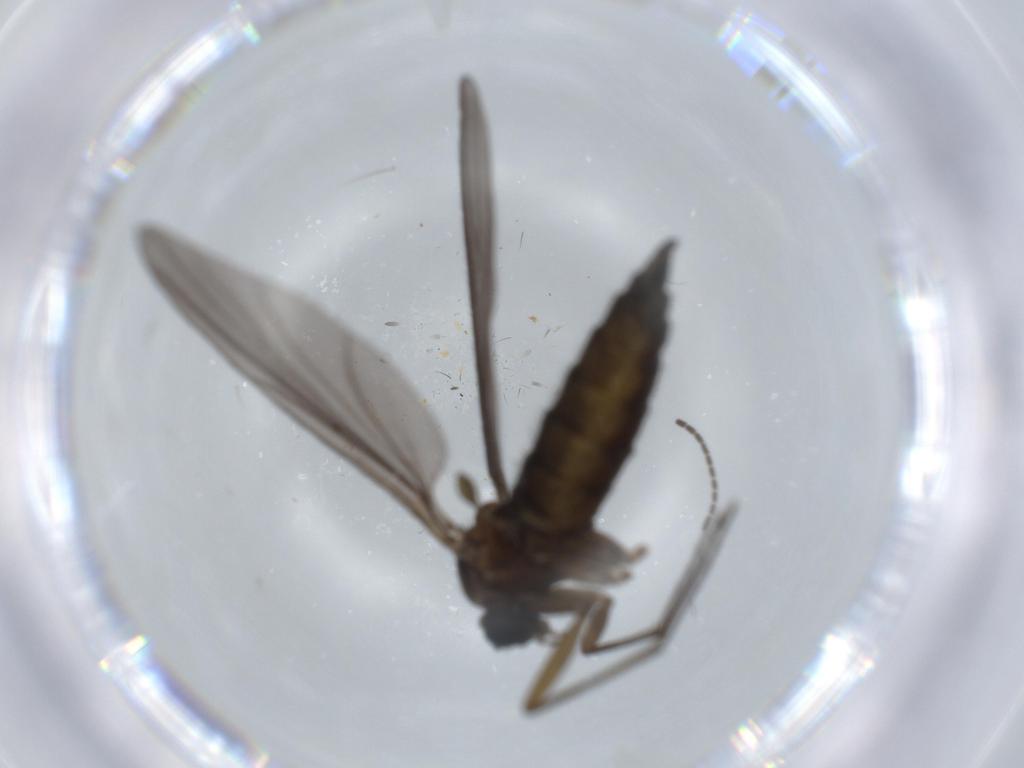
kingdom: Animalia
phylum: Arthropoda
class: Insecta
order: Diptera
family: Sciaridae
